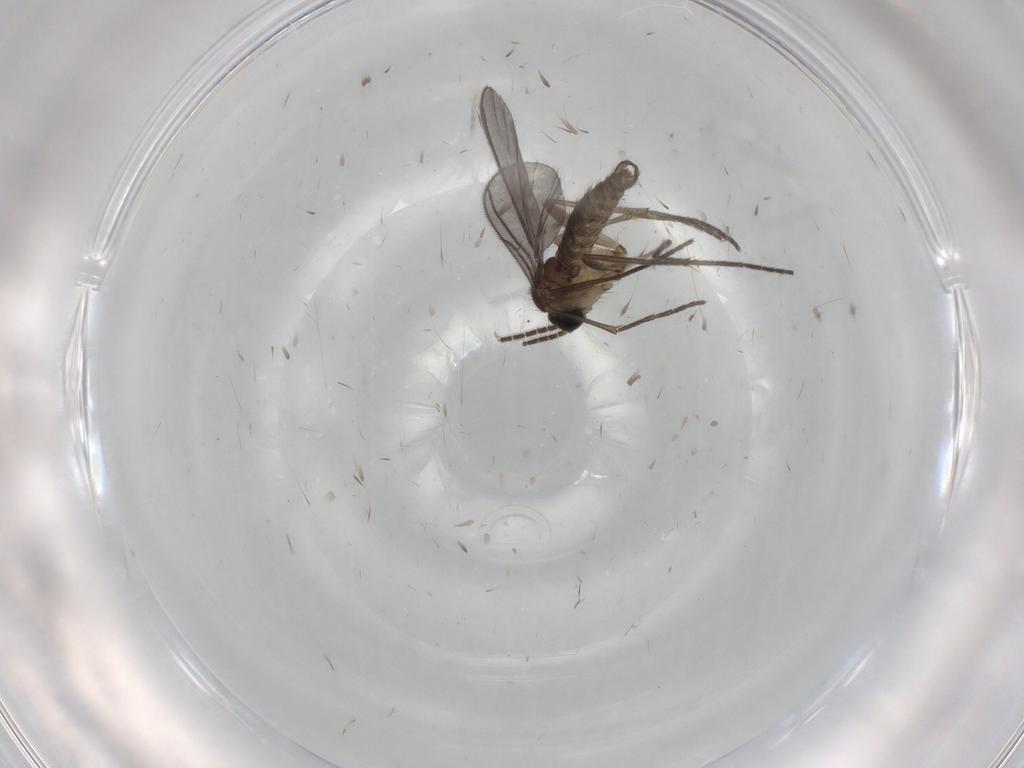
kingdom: Animalia
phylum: Arthropoda
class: Insecta
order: Diptera
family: Sciaridae
